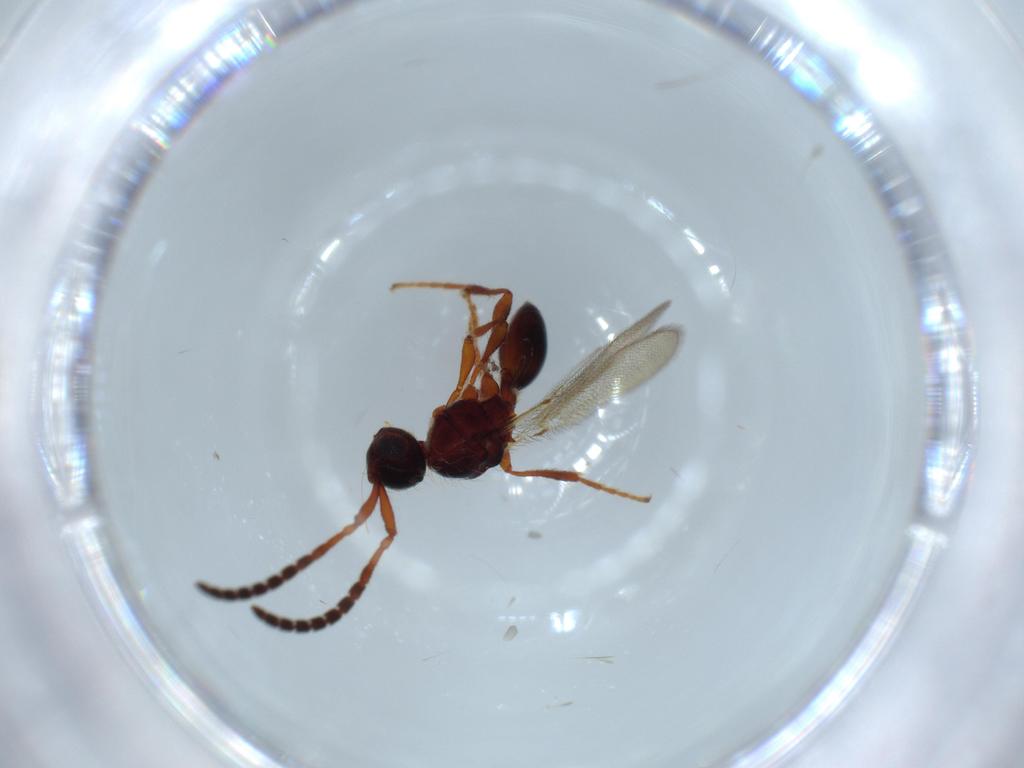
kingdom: Animalia
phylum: Arthropoda
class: Insecta
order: Hymenoptera
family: Diapriidae
